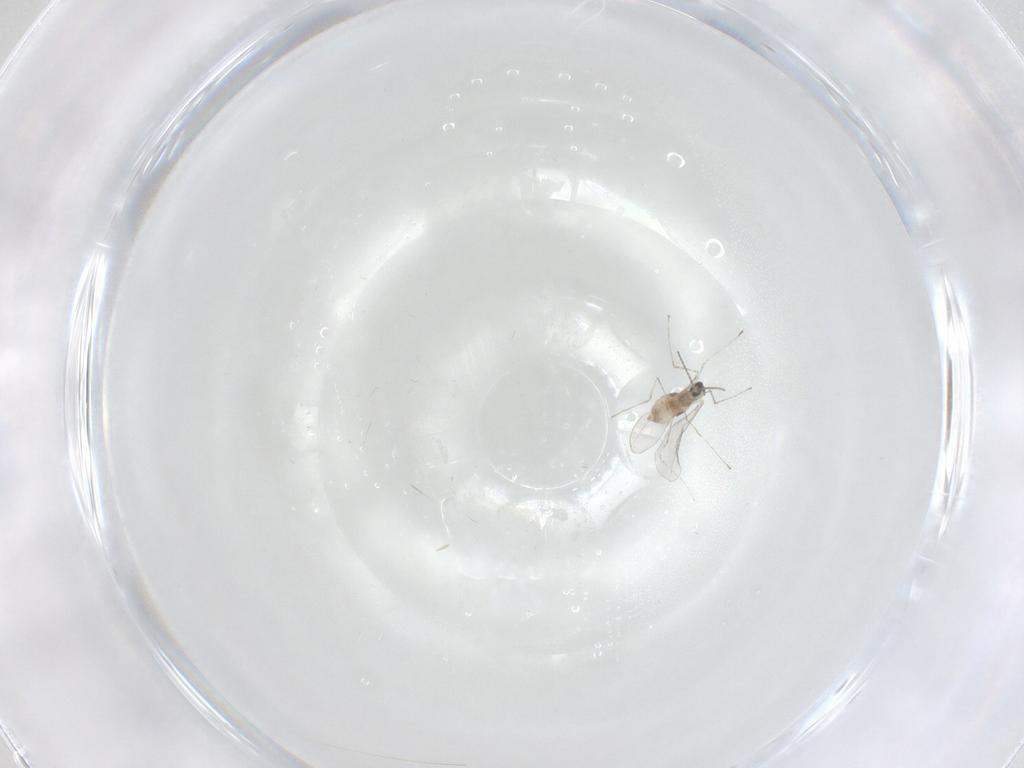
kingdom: Animalia
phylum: Arthropoda
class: Insecta
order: Diptera
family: Cecidomyiidae
